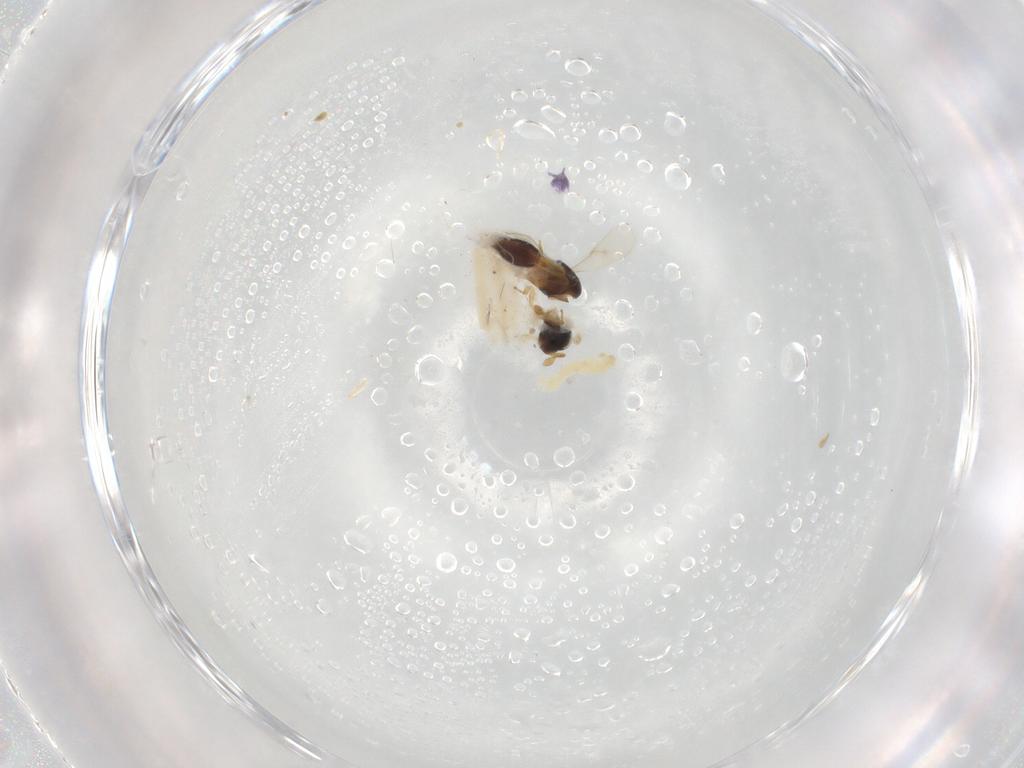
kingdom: Animalia
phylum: Arthropoda
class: Insecta
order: Hymenoptera
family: Scelionidae
